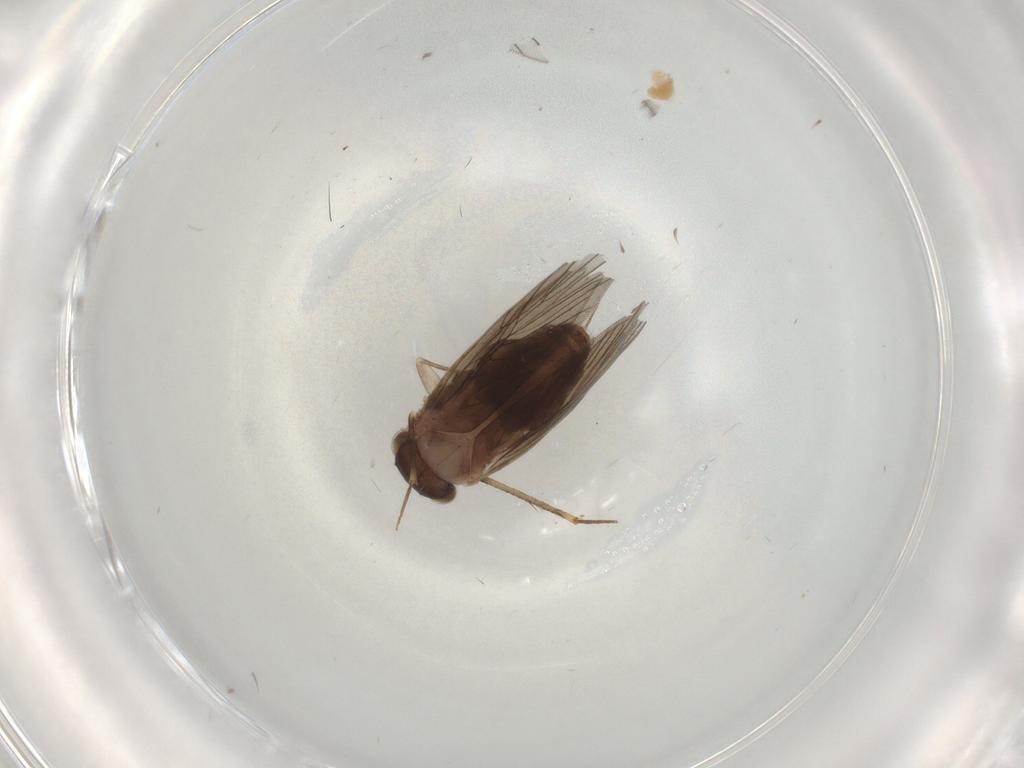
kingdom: Animalia
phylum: Arthropoda
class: Insecta
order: Psocodea
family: Lepidopsocidae
